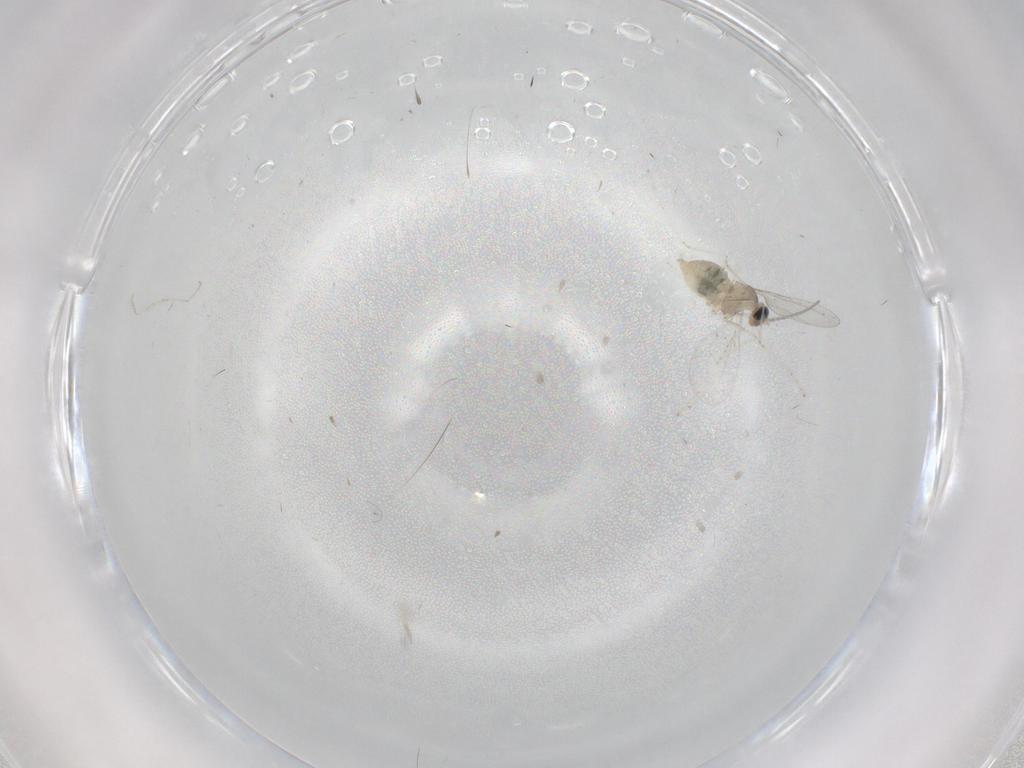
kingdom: Animalia
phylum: Arthropoda
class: Insecta
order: Diptera
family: Cecidomyiidae
